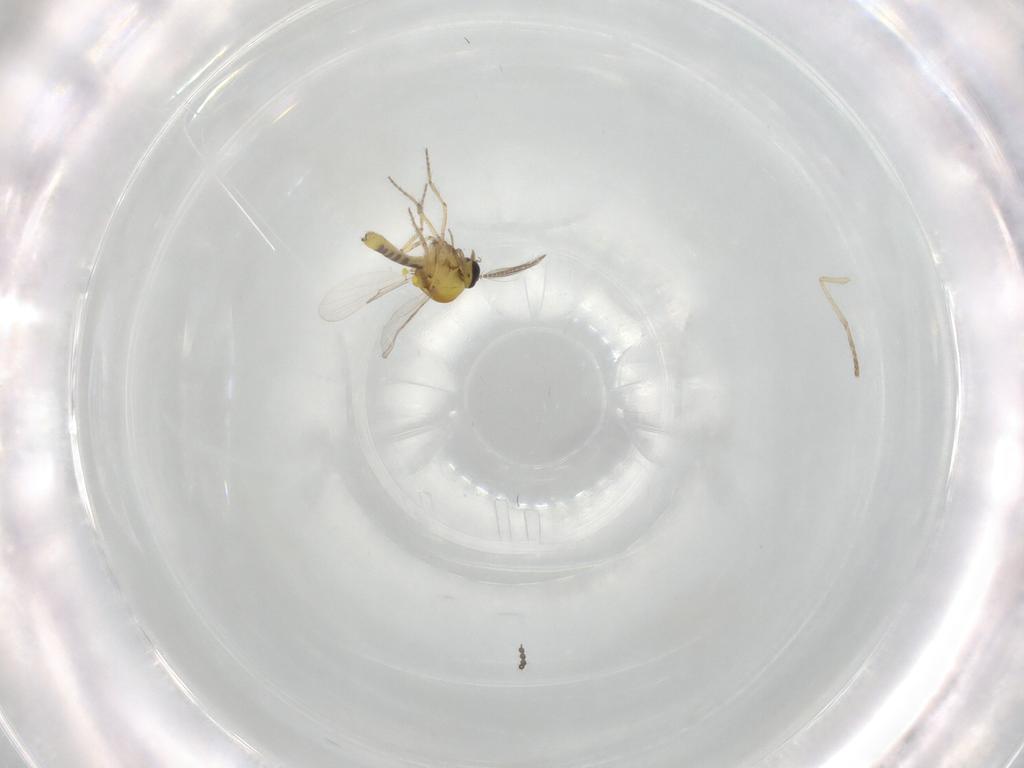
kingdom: Animalia
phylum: Arthropoda
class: Insecta
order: Diptera
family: Ceratopogonidae
